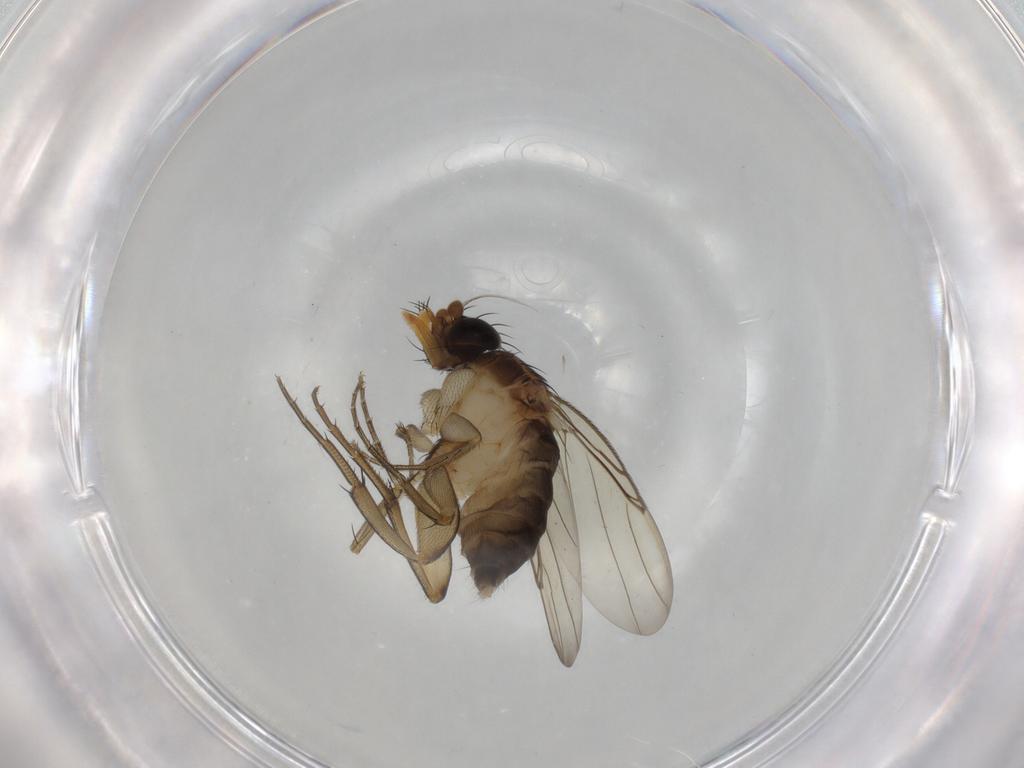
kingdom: Animalia
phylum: Arthropoda
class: Insecta
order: Diptera
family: Phoridae
